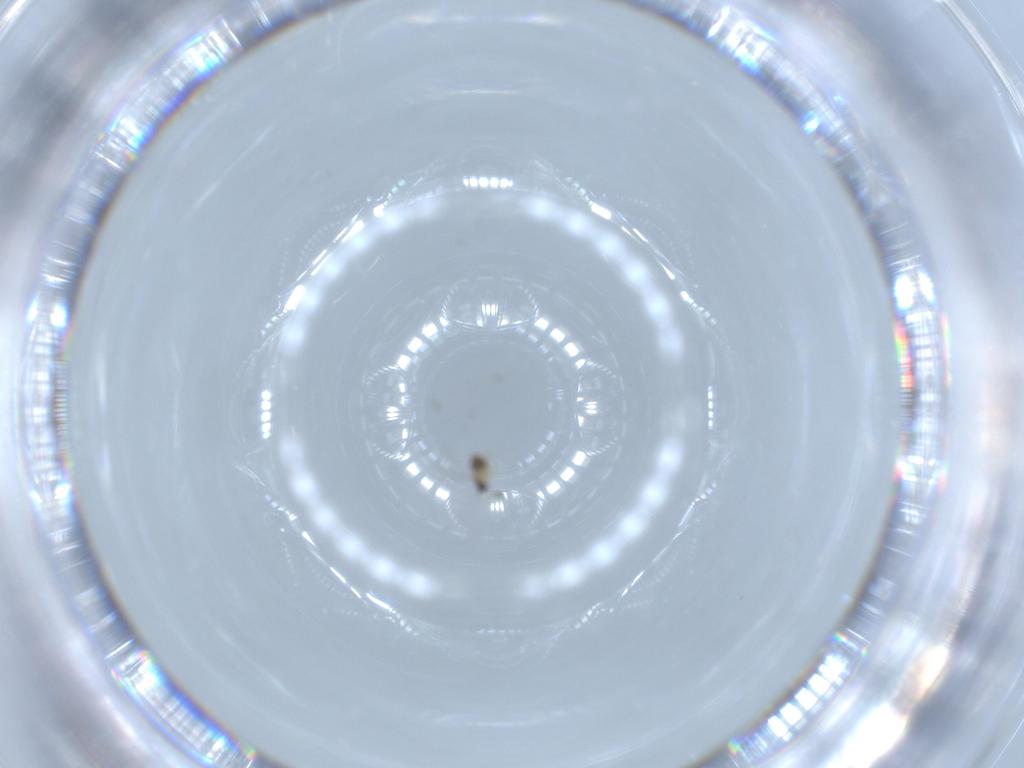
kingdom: Animalia
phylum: Arthropoda
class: Insecta
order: Hymenoptera
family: Mymaridae
